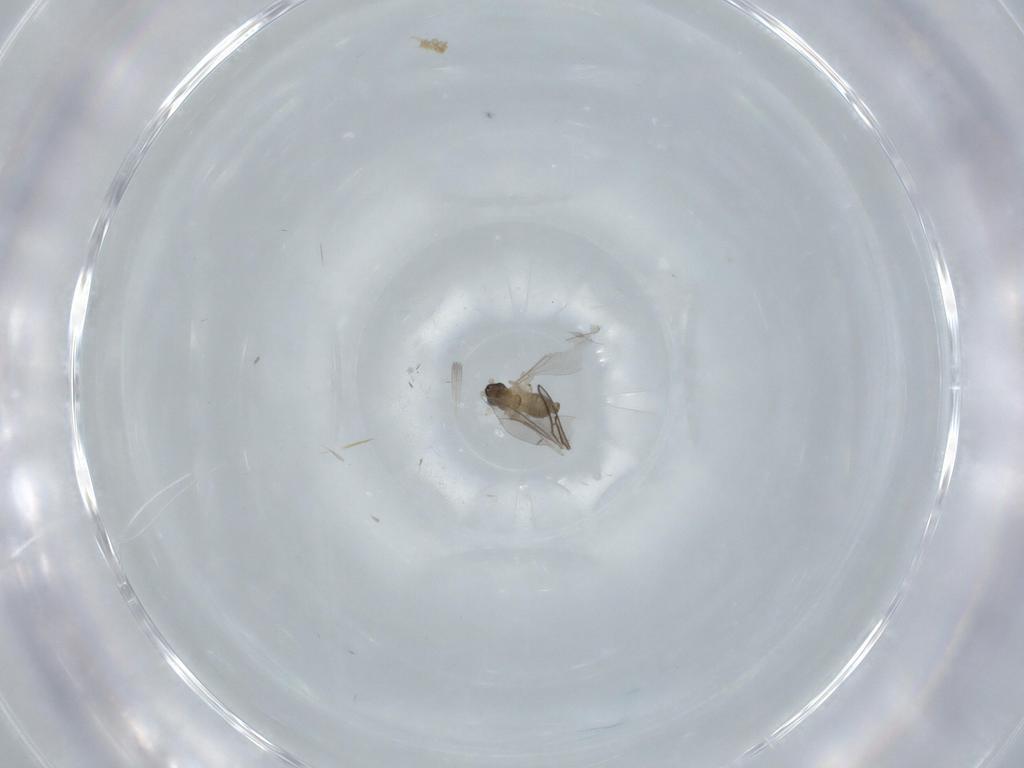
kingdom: Animalia
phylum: Arthropoda
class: Insecta
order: Diptera
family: Cecidomyiidae
